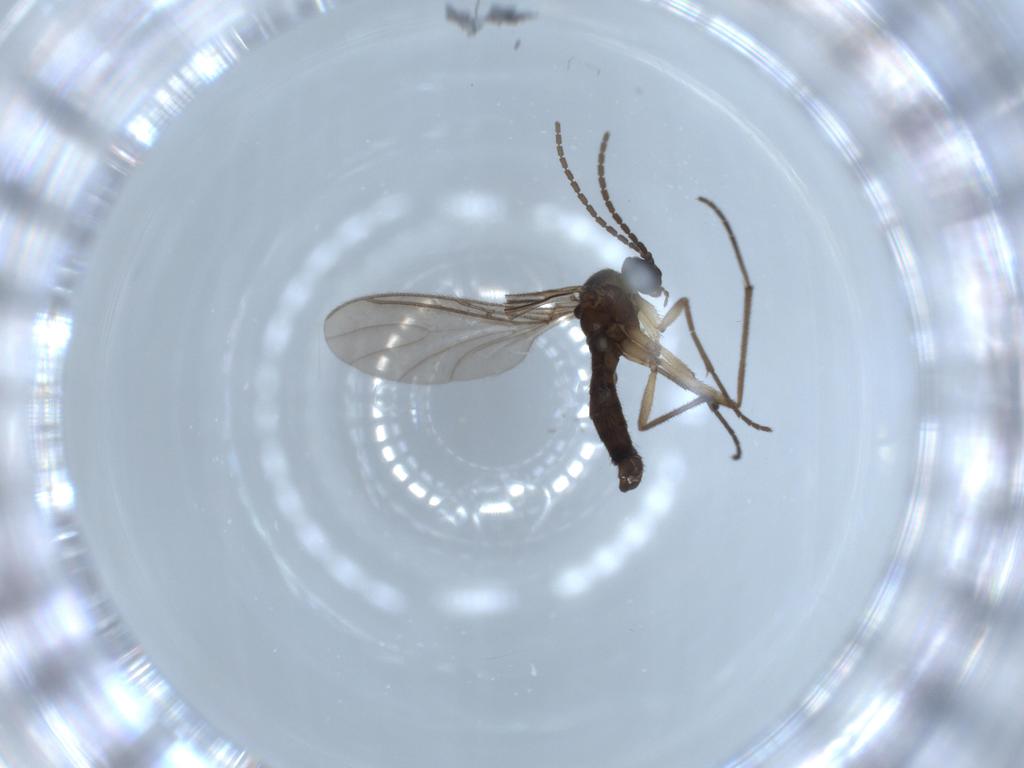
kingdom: Animalia
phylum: Arthropoda
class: Insecta
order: Diptera
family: Sciaridae
